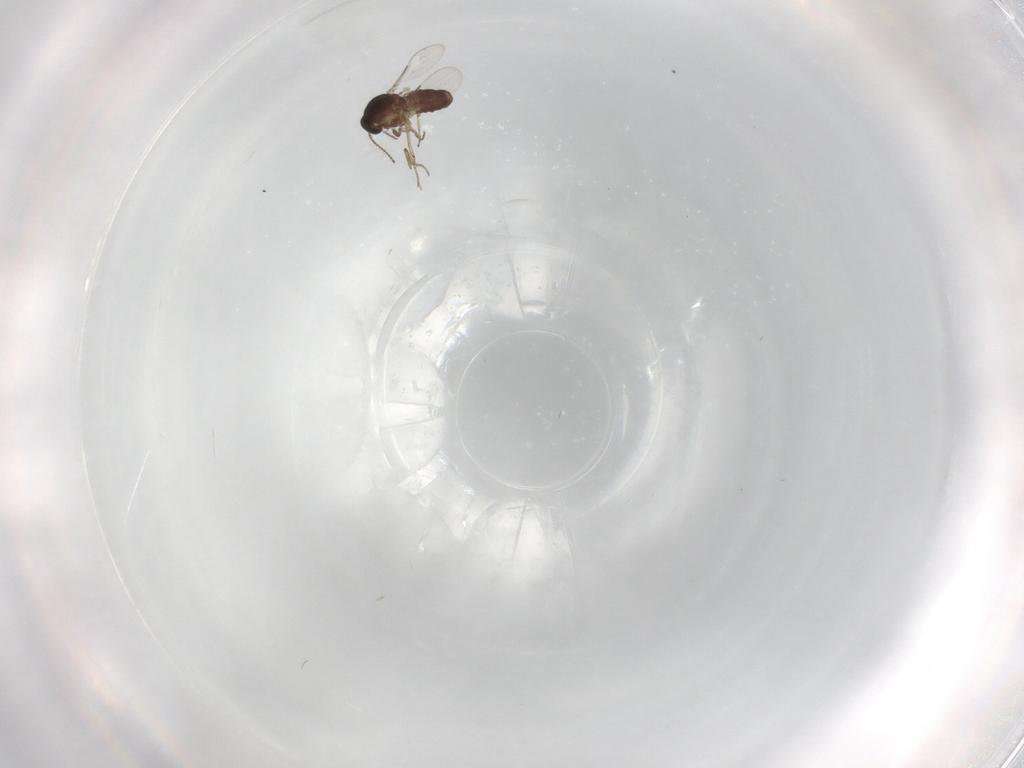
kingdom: Animalia
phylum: Arthropoda
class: Insecta
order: Diptera
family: Ceratopogonidae
